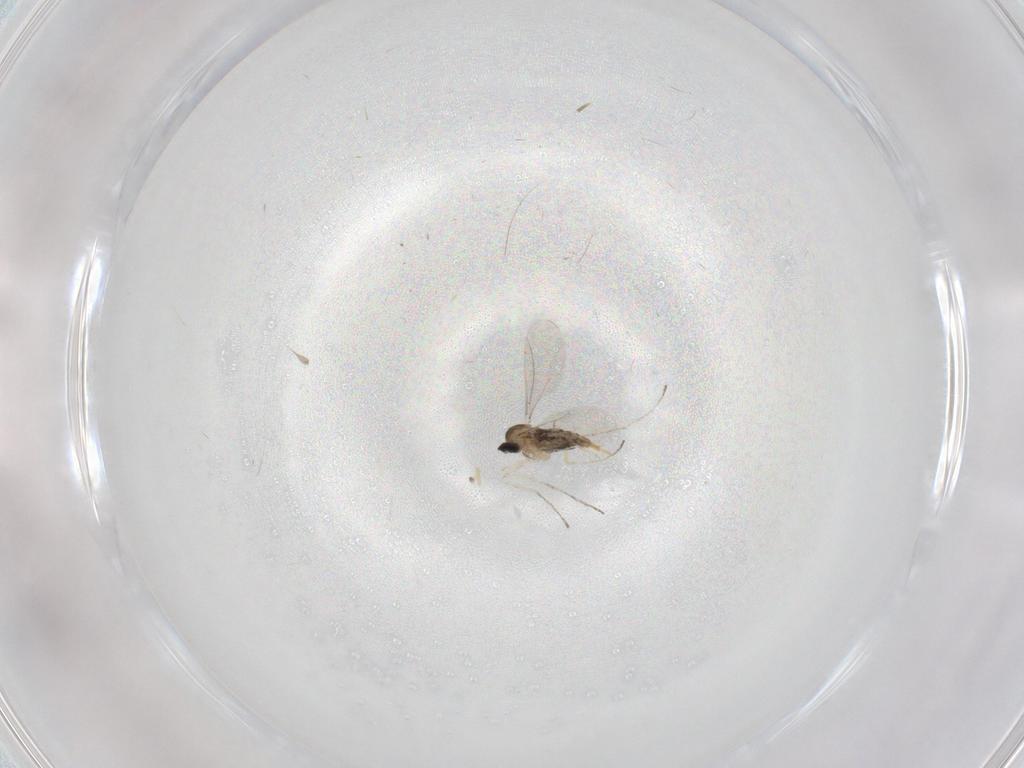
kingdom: Animalia
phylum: Arthropoda
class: Insecta
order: Diptera
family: Cecidomyiidae
